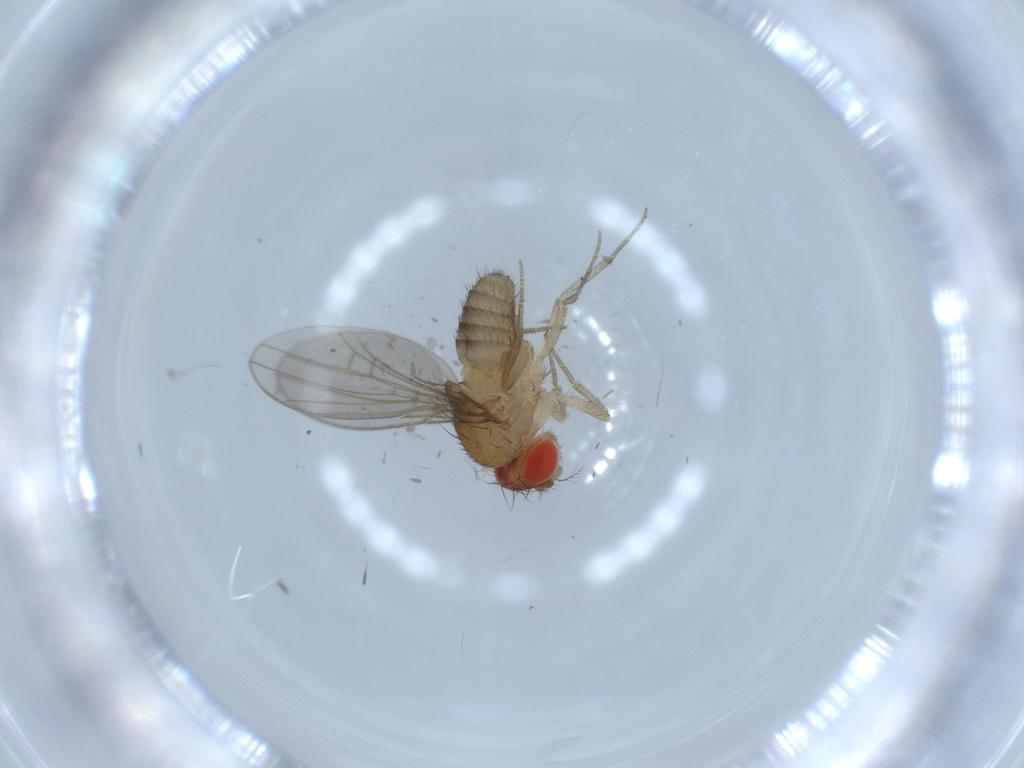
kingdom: Animalia
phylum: Arthropoda
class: Insecta
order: Diptera
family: Drosophilidae
